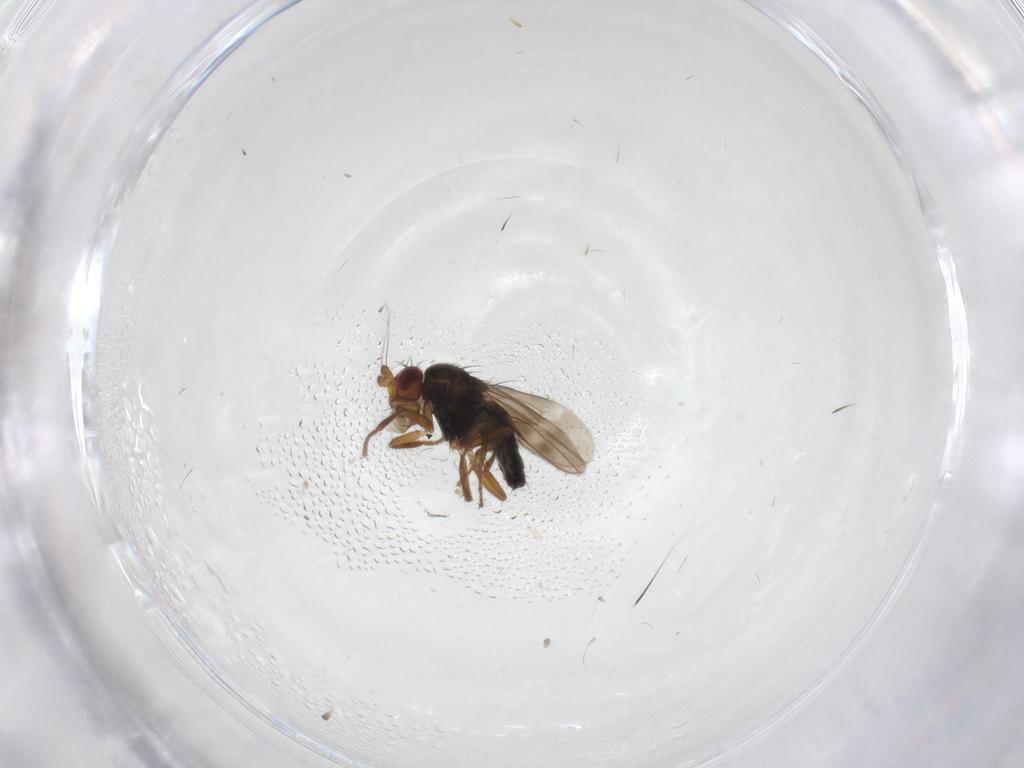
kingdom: Animalia
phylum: Arthropoda
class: Insecta
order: Diptera
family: Sphaeroceridae
